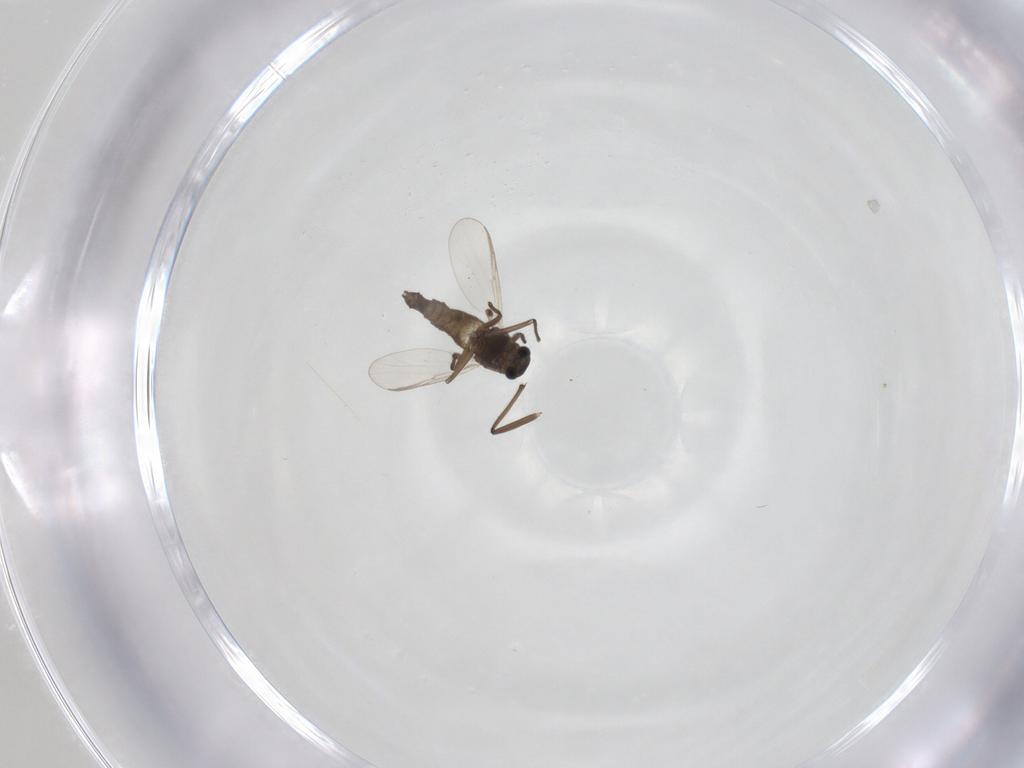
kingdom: Animalia
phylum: Arthropoda
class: Insecta
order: Diptera
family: Chironomidae
